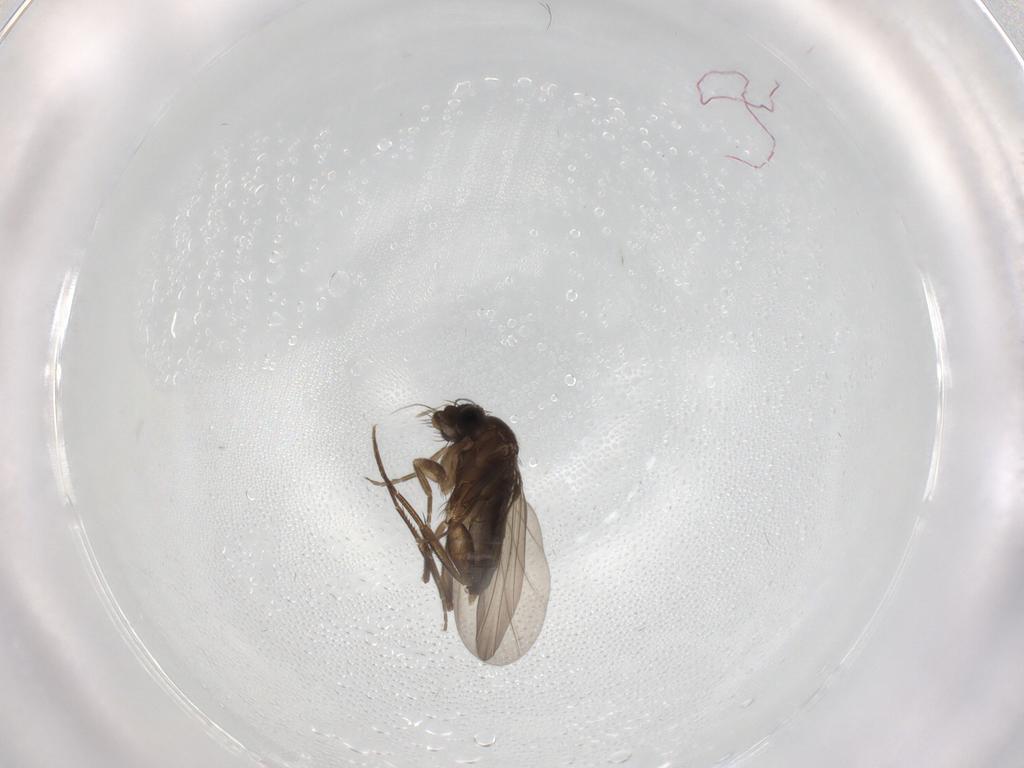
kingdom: Animalia
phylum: Arthropoda
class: Insecta
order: Diptera
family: Phoridae
